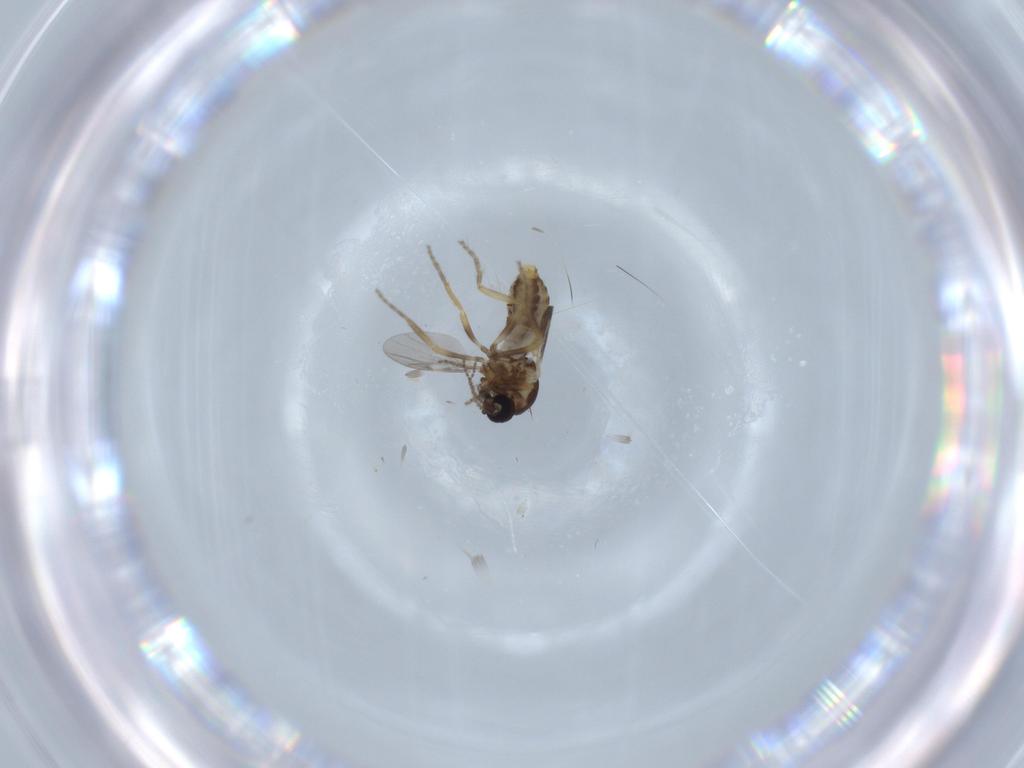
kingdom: Animalia
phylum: Arthropoda
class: Insecta
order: Diptera
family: Ceratopogonidae
